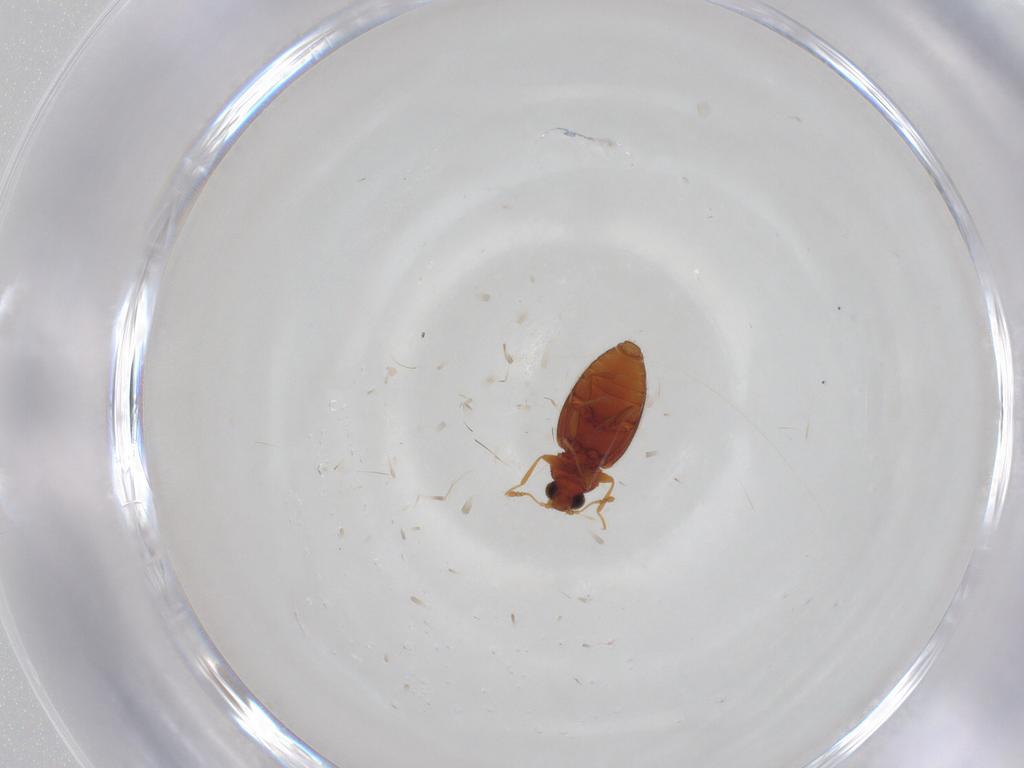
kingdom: Animalia
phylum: Arthropoda
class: Insecta
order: Coleoptera
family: Latridiidae
